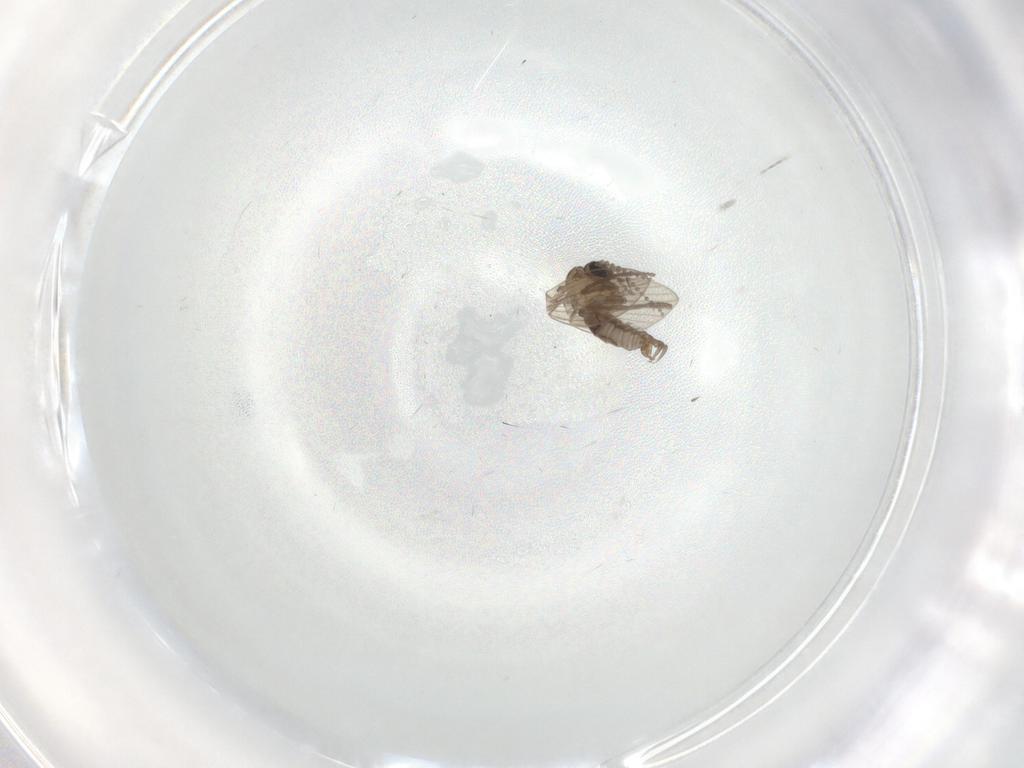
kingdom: Animalia
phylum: Arthropoda
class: Insecta
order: Diptera
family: Psychodidae
